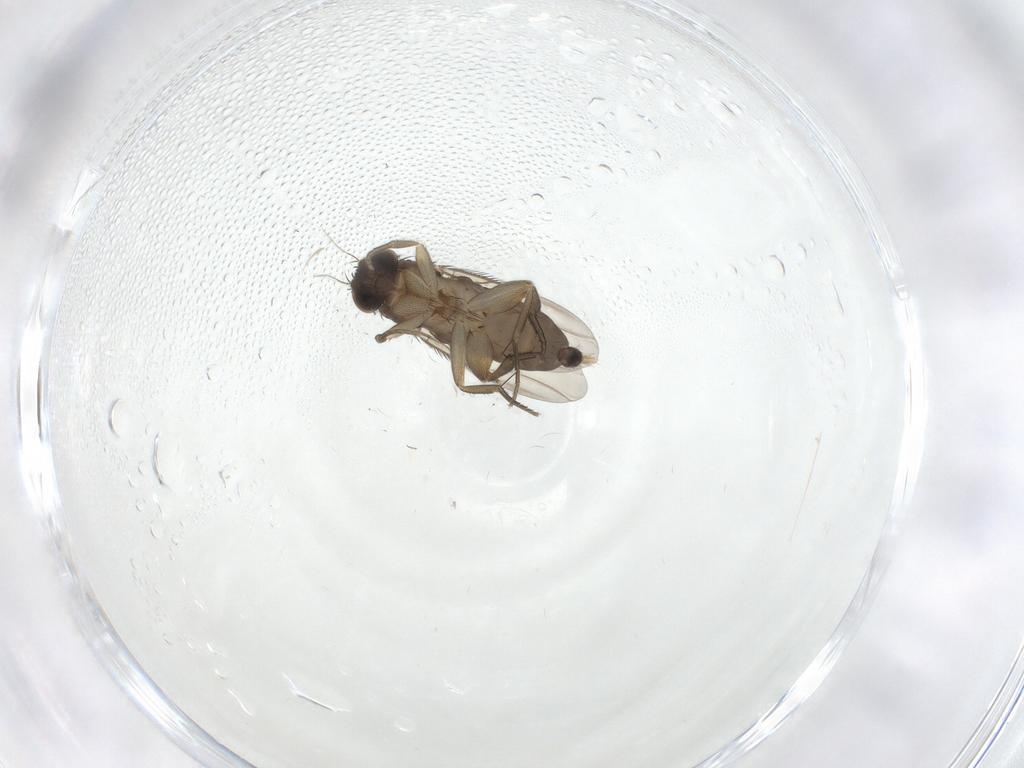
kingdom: Animalia
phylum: Arthropoda
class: Insecta
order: Diptera
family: Phoridae
